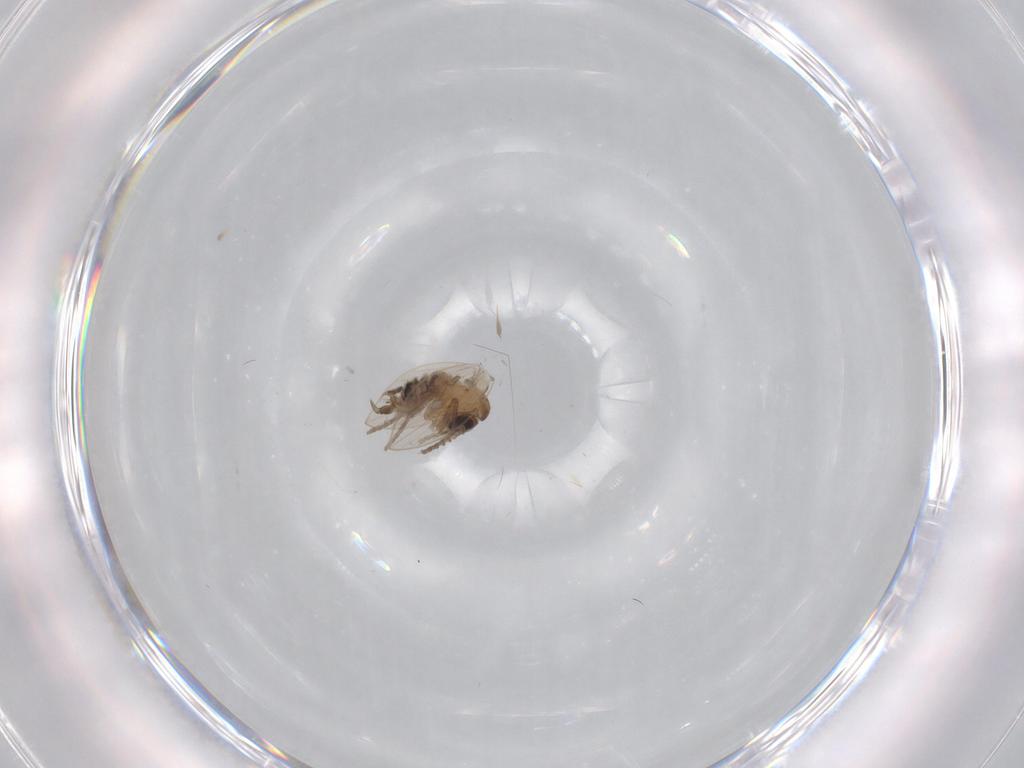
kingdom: Animalia
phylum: Arthropoda
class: Insecta
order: Diptera
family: Psychodidae
